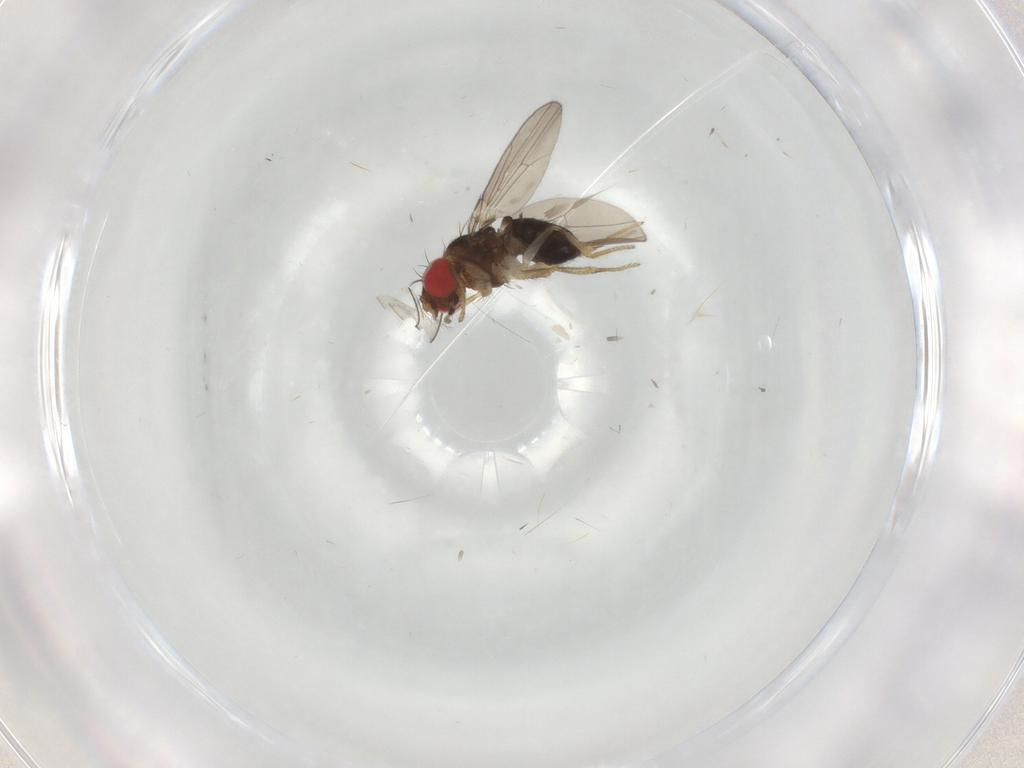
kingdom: Animalia
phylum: Arthropoda
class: Insecta
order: Diptera
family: Drosophilidae
